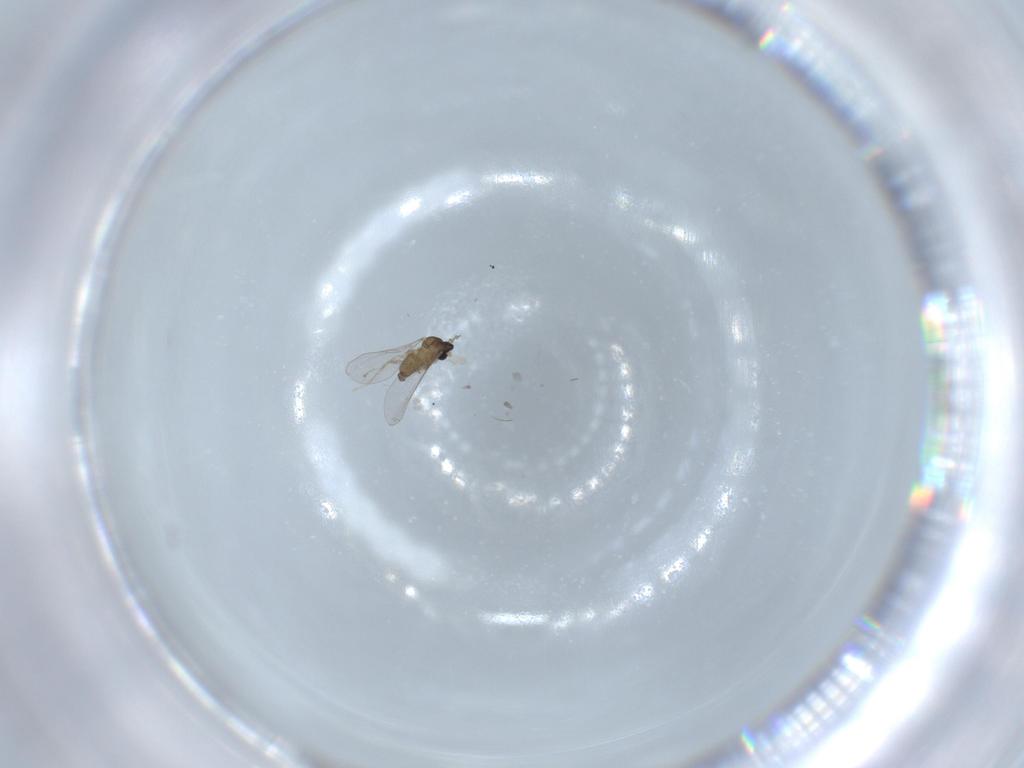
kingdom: Animalia
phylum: Arthropoda
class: Insecta
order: Diptera
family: Cecidomyiidae
